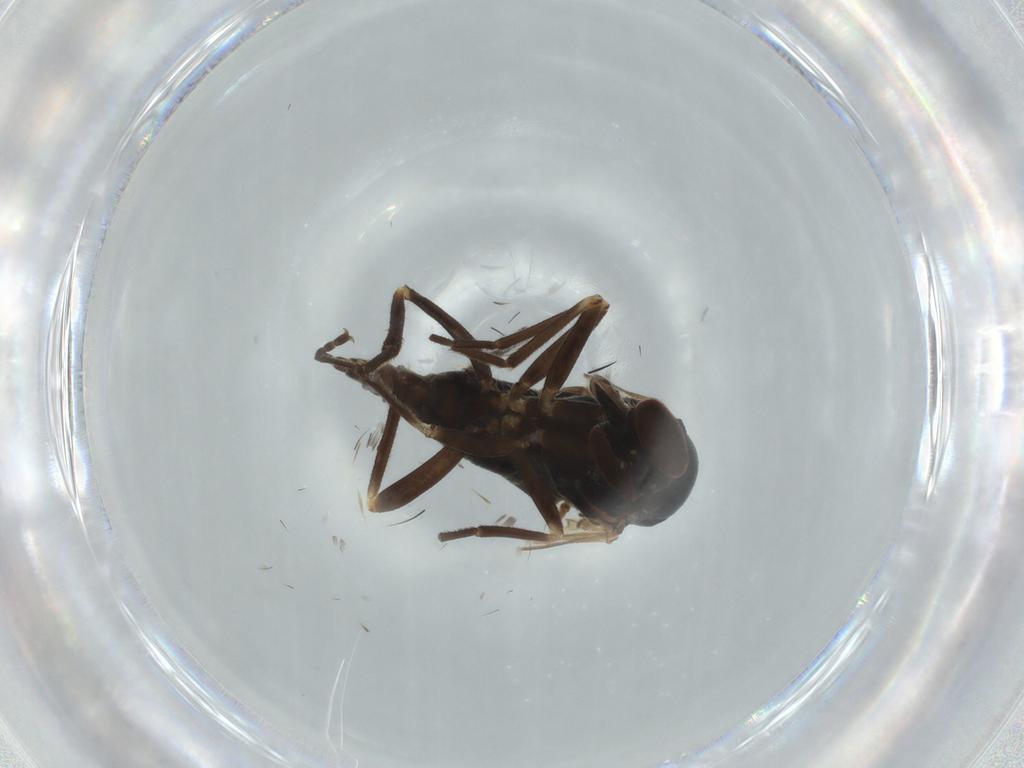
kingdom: Animalia
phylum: Arthropoda
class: Insecta
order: Diptera
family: Empididae
